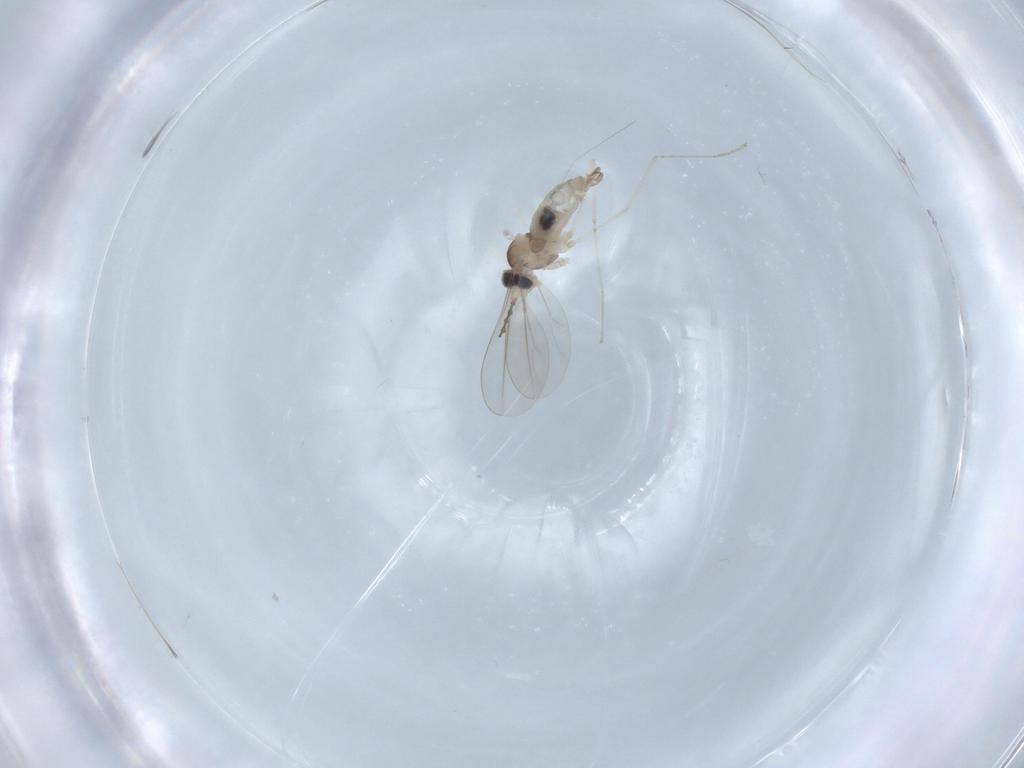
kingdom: Animalia
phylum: Arthropoda
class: Insecta
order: Diptera
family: Cecidomyiidae
